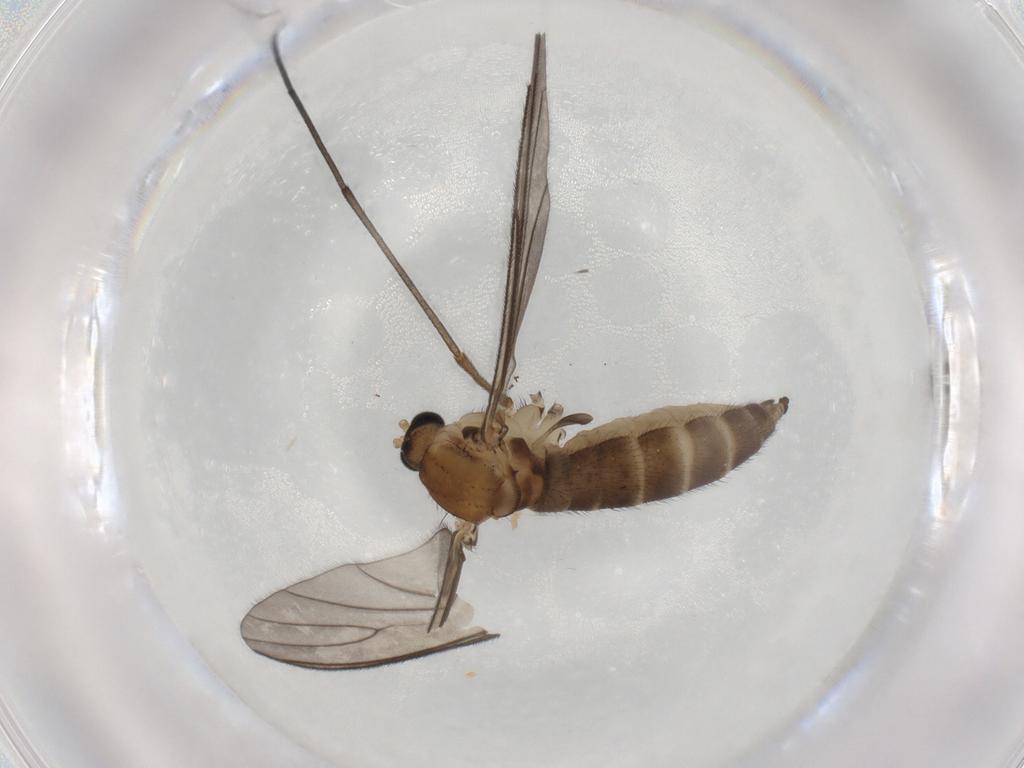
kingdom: Animalia
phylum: Arthropoda
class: Insecta
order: Diptera
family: Sciaridae
